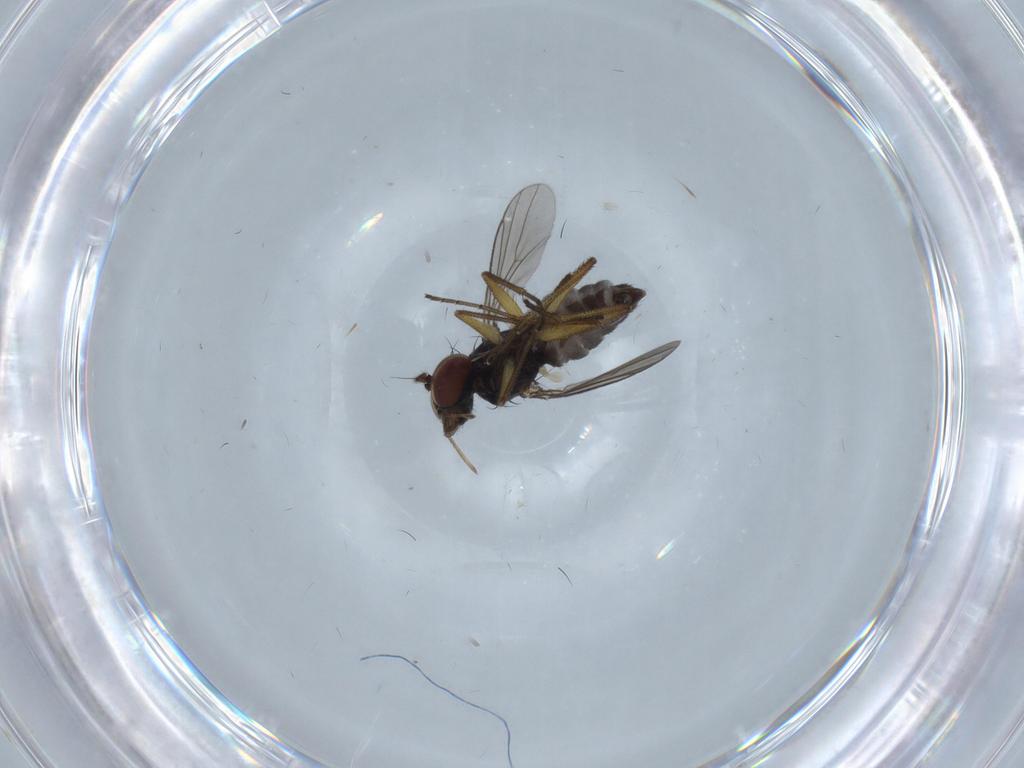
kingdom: Animalia
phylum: Arthropoda
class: Insecta
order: Diptera
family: Dolichopodidae
